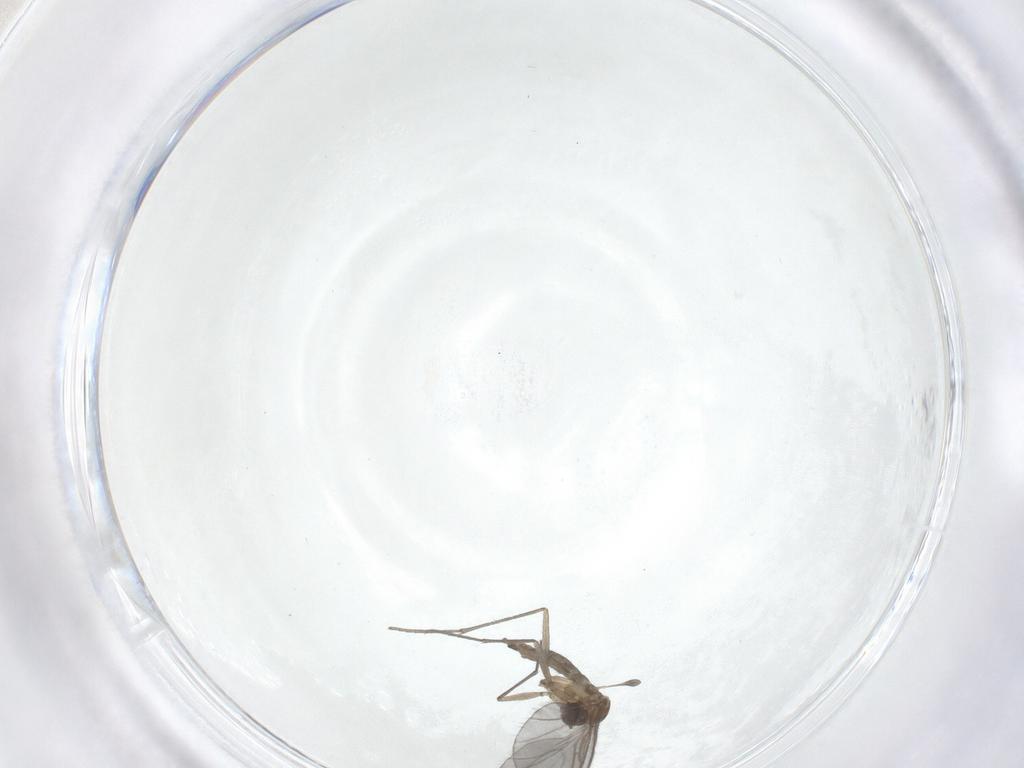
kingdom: Animalia
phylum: Arthropoda
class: Insecta
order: Diptera
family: Sciaridae
